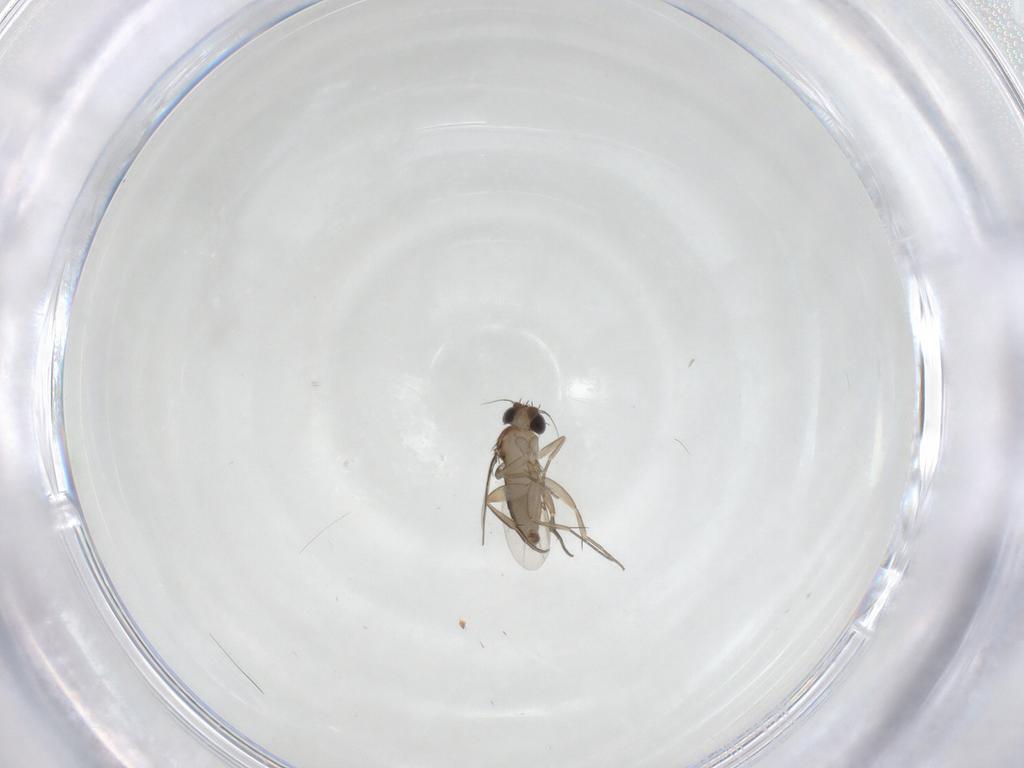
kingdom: Animalia
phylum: Arthropoda
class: Insecta
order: Diptera
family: Phoridae
